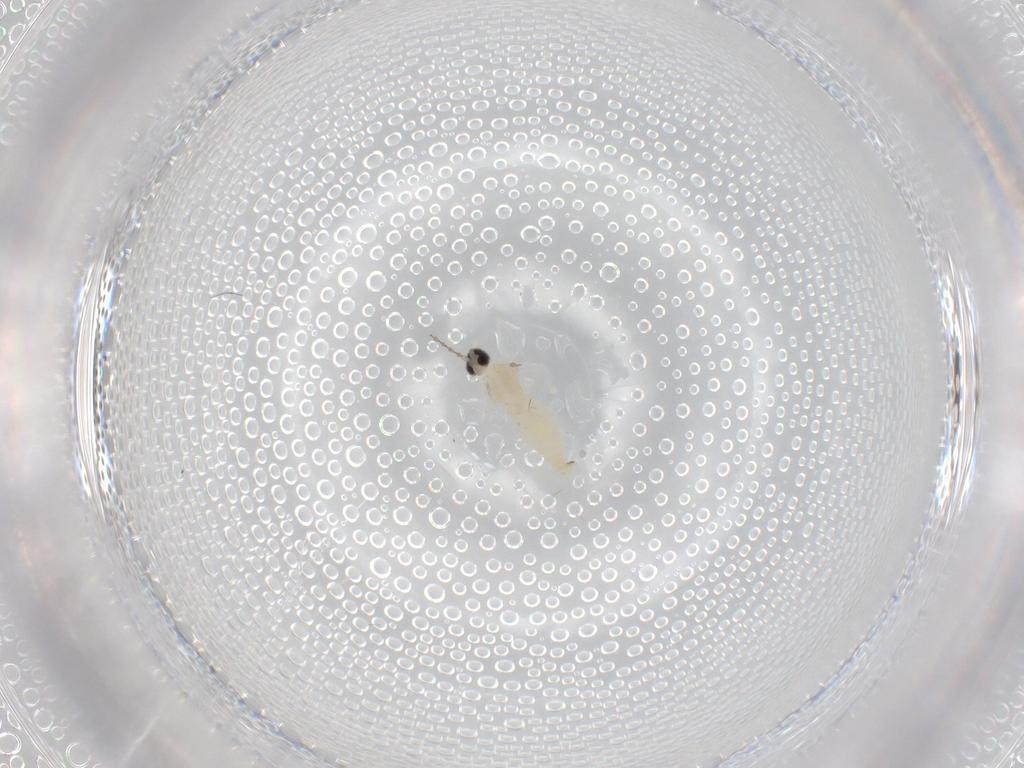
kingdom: Animalia
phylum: Arthropoda
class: Insecta
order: Diptera
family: Cecidomyiidae
